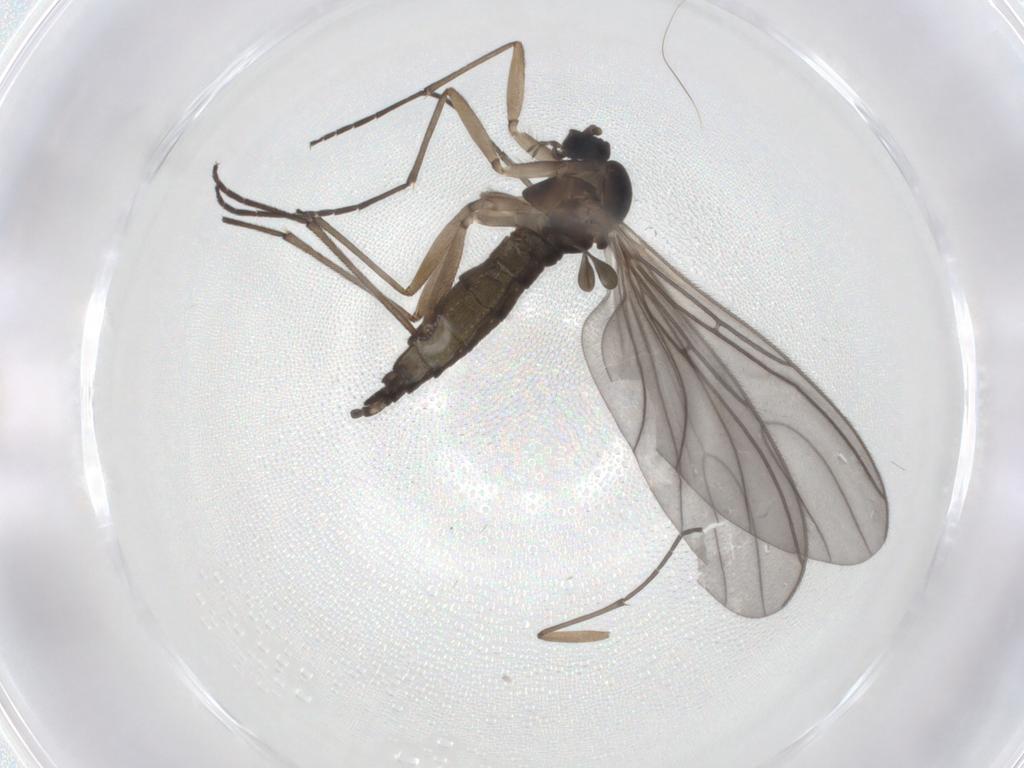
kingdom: Animalia
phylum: Arthropoda
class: Insecta
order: Diptera
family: Sciaridae
